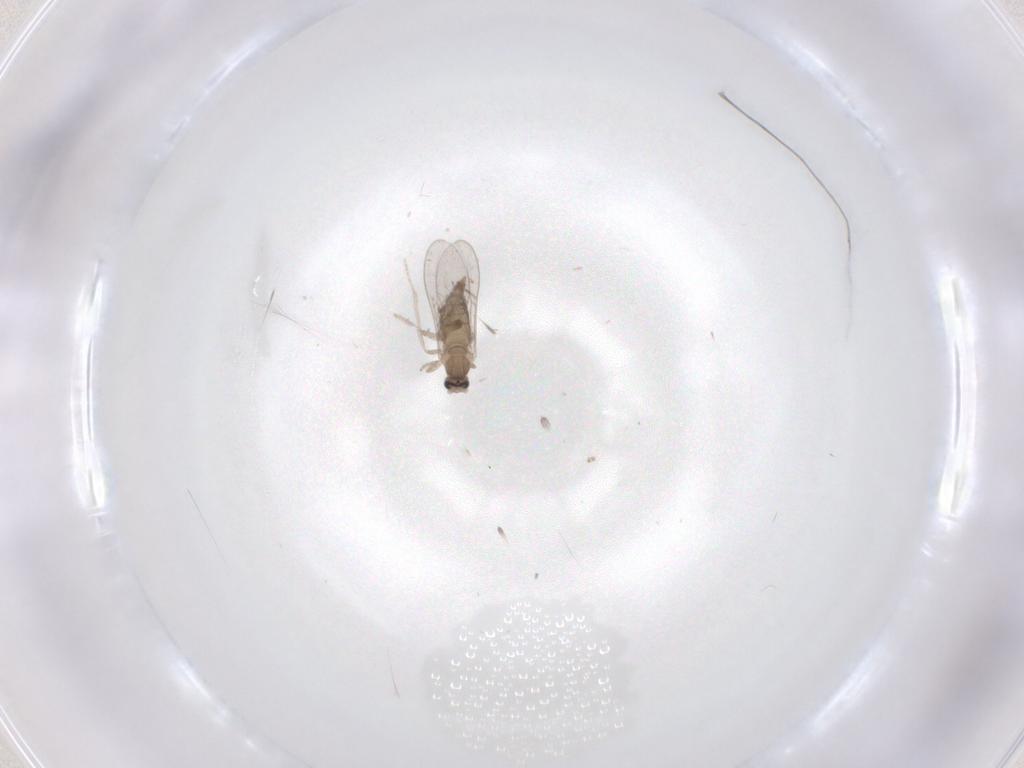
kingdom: Animalia
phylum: Arthropoda
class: Insecta
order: Diptera
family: Cecidomyiidae
